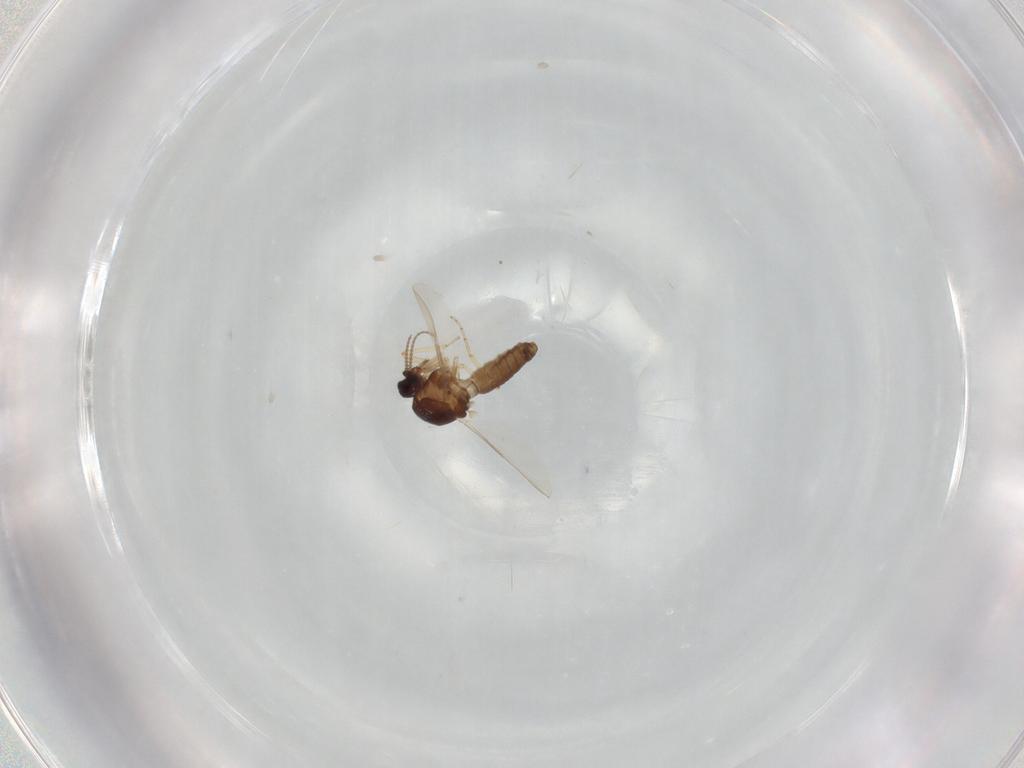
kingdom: Animalia
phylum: Arthropoda
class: Insecta
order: Diptera
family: Ceratopogonidae
